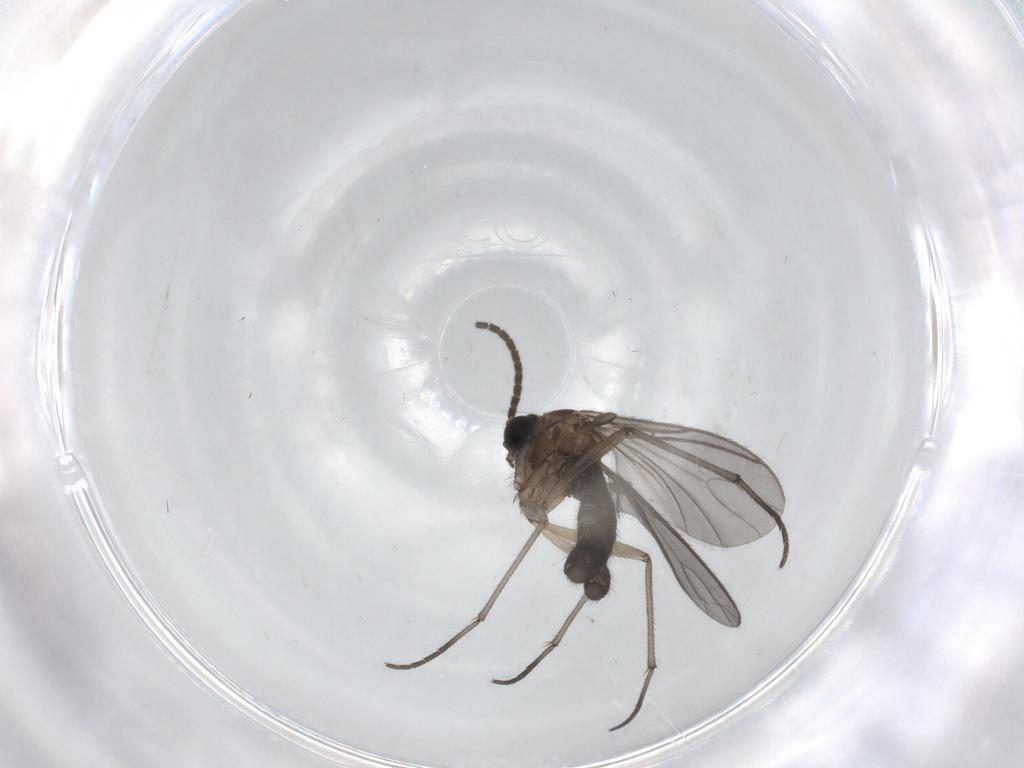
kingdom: Animalia
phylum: Arthropoda
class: Insecta
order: Diptera
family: Sciaridae
